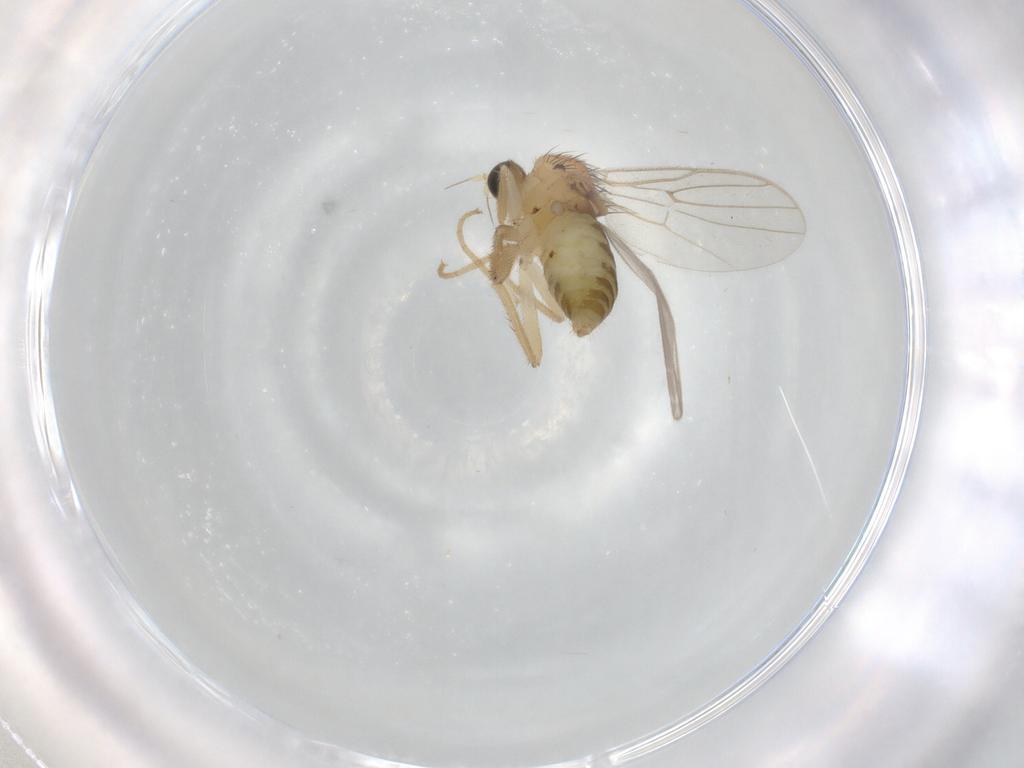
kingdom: Animalia
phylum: Arthropoda
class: Insecta
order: Diptera
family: Hybotidae
